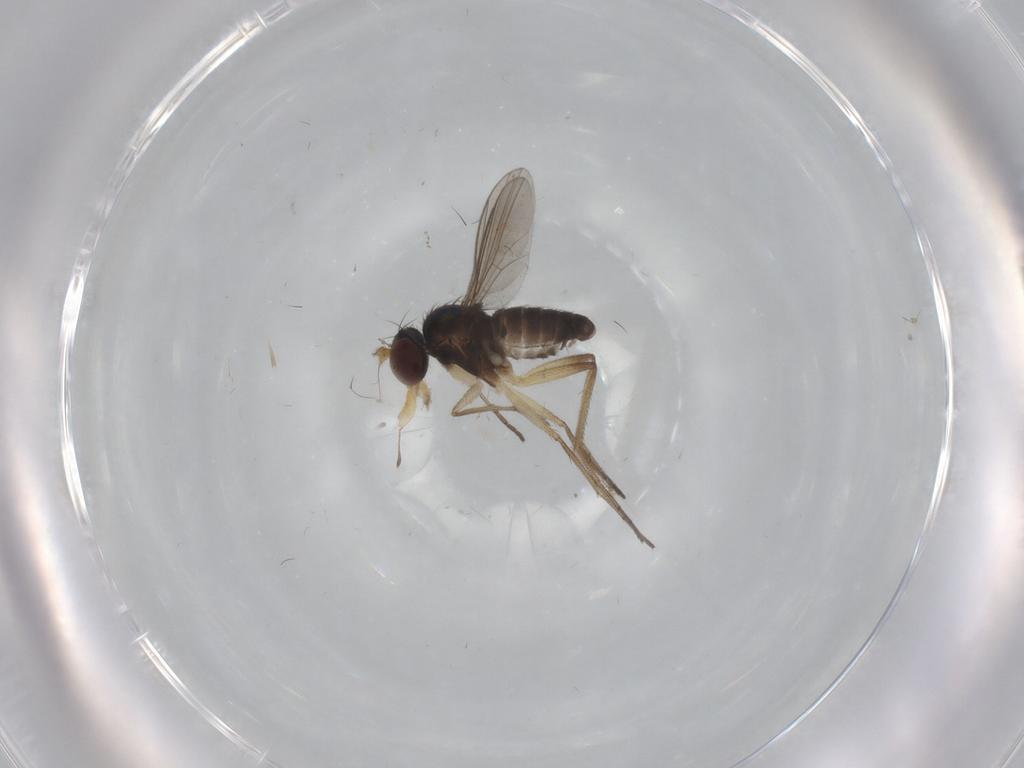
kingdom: Animalia
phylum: Arthropoda
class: Insecta
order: Diptera
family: Dolichopodidae
